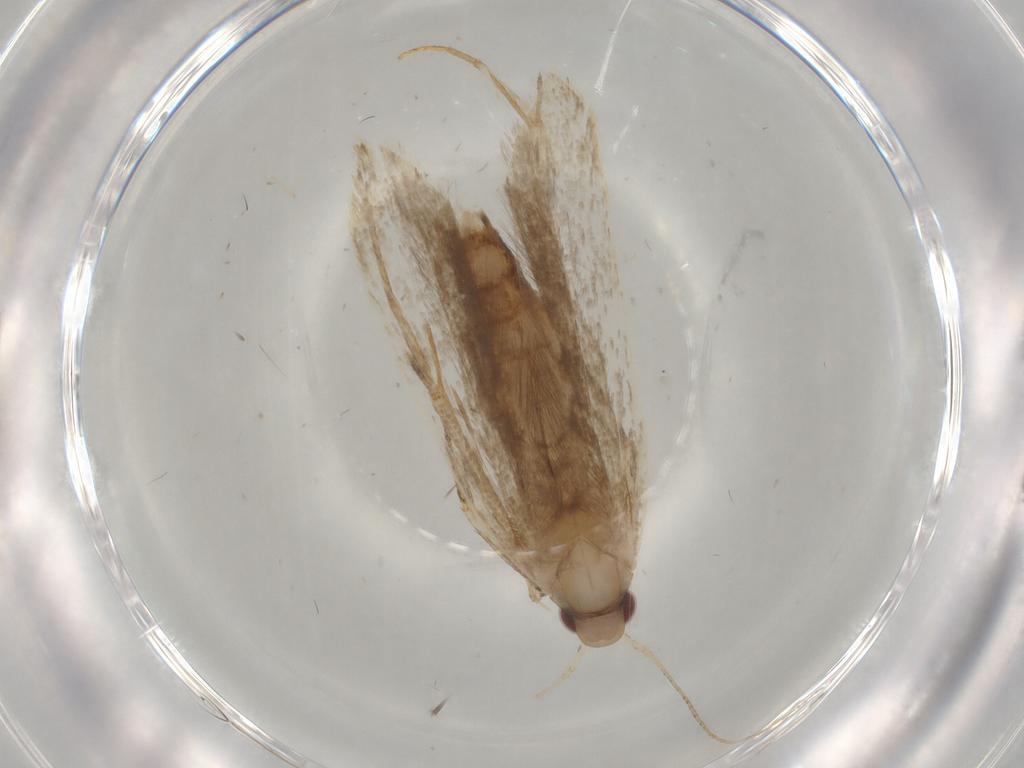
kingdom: Animalia
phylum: Arthropoda
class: Insecta
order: Lepidoptera
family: Gelechiidae
